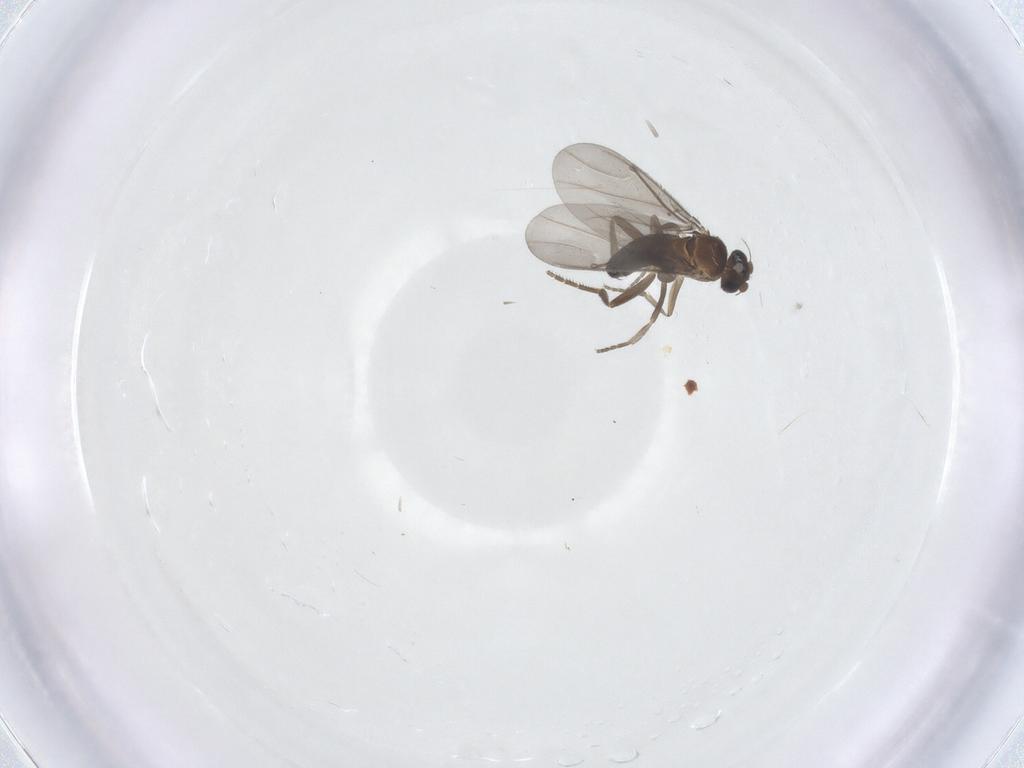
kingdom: Animalia
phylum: Arthropoda
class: Insecta
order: Diptera
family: Phoridae
